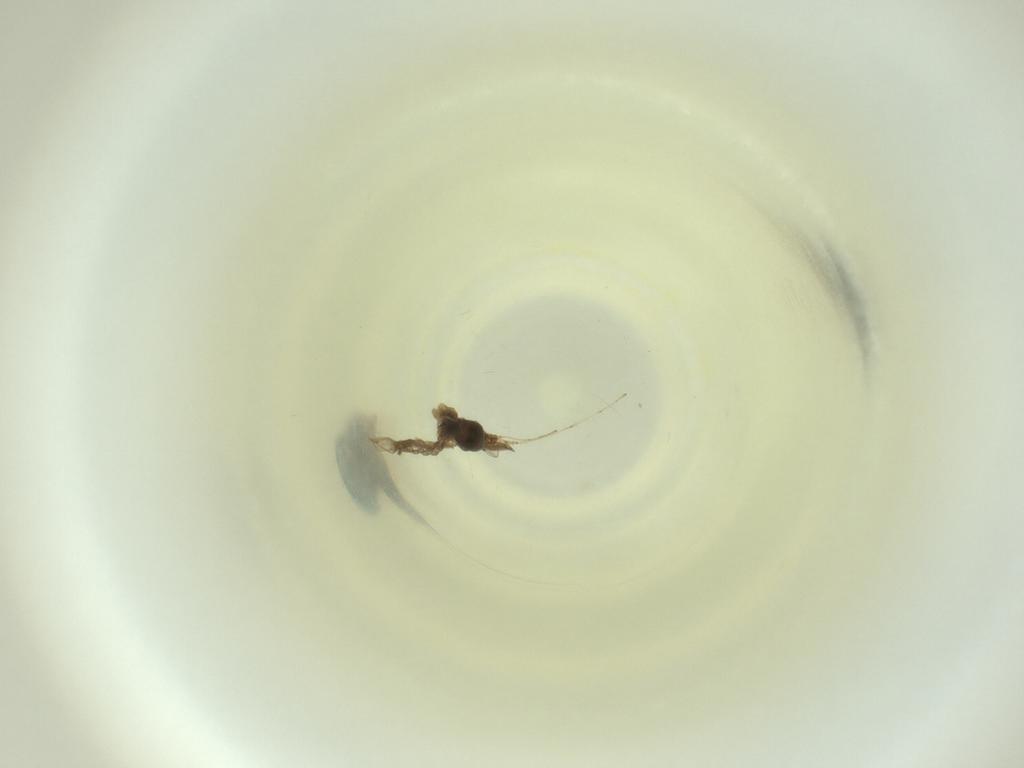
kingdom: Animalia
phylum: Arthropoda
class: Insecta
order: Diptera
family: Cecidomyiidae
